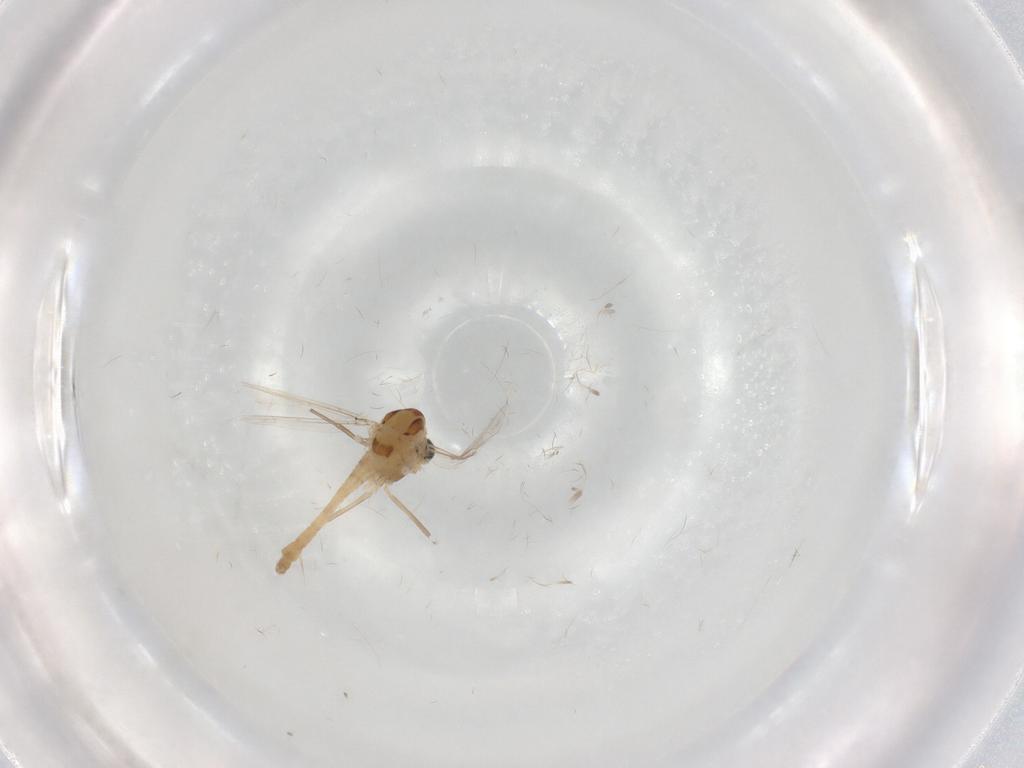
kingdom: Animalia
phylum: Arthropoda
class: Insecta
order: Diptera
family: Chironomidae
